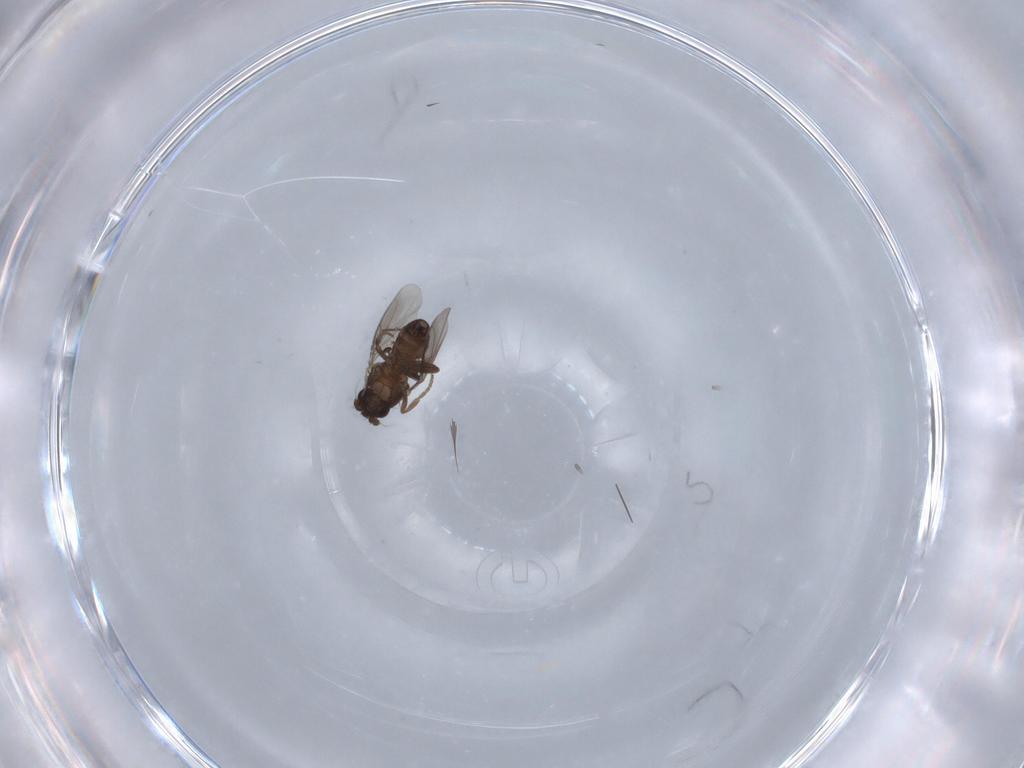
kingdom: Animalia
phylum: Arthropoda
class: Insecta
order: Diptera
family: Sphaeroceridae
